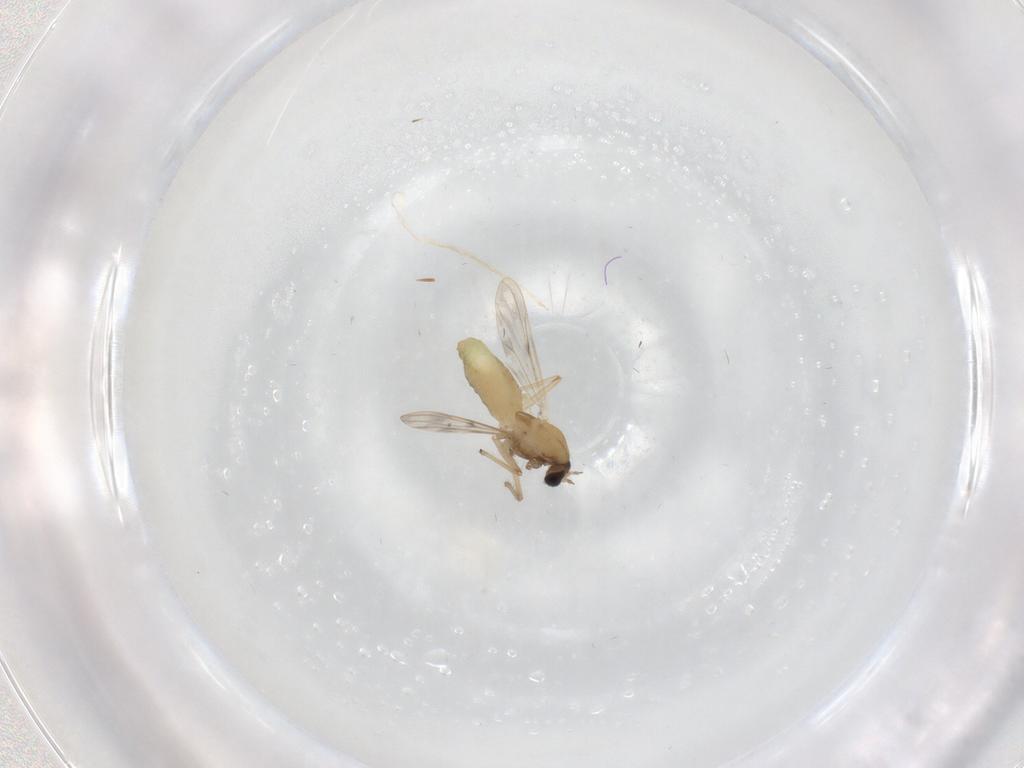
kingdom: Animalia
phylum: Arthropoda
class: Insecta
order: Diptera
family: Chironomidae
